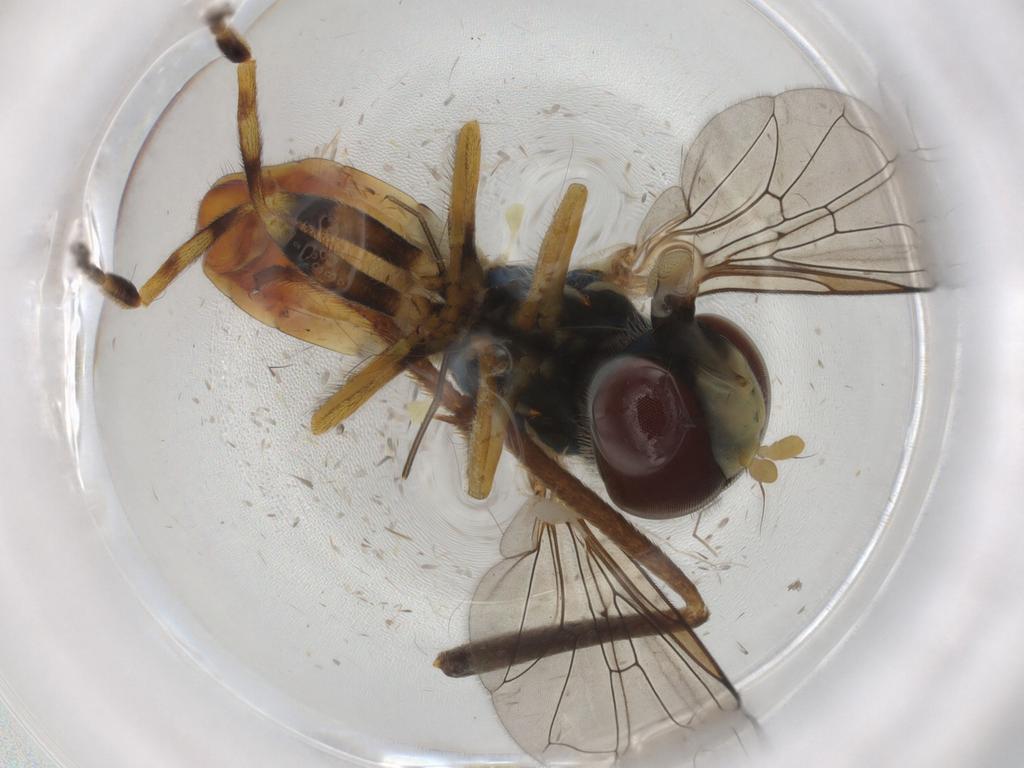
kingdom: Animalia
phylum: Arthropoda
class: Insecta
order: Diptera
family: Syrphidae
